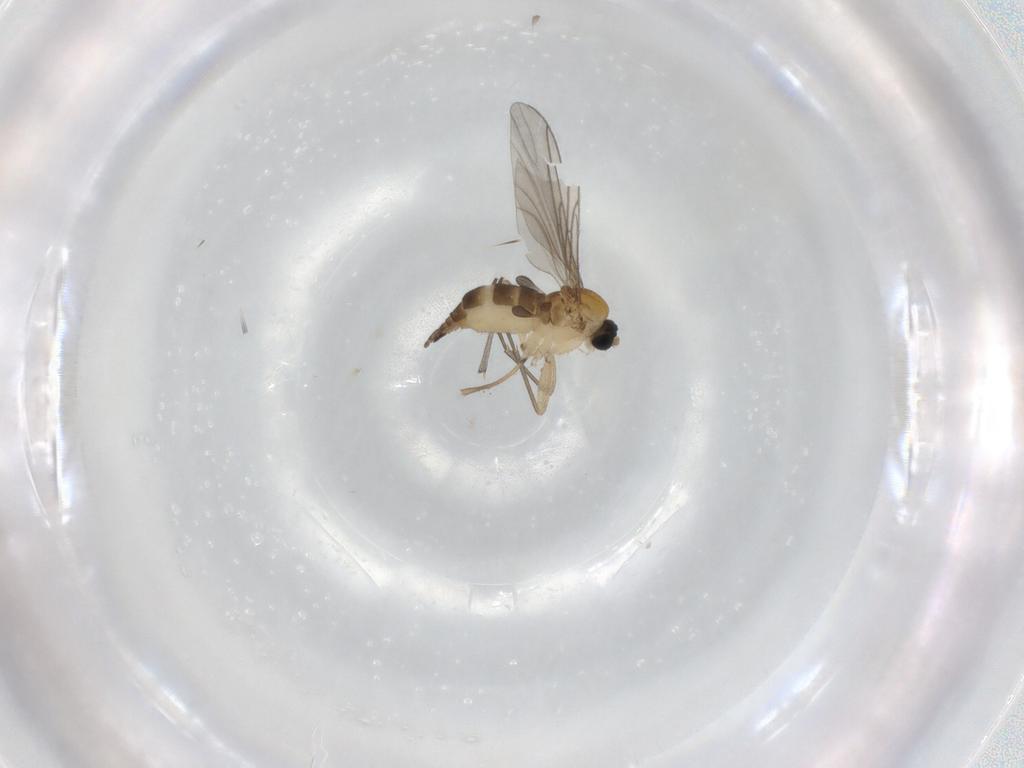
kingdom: Animalia
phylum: Arthropoda
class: Insecta
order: Diptera
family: Sciaridae
